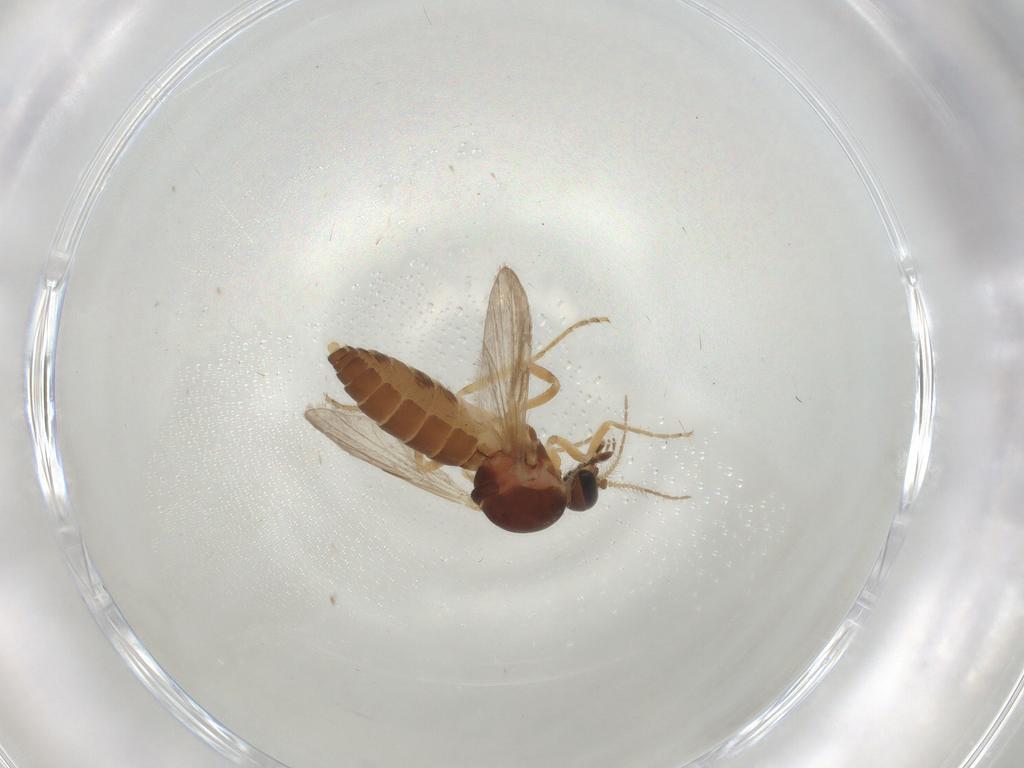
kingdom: Animalia
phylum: Arthropoda
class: Insecta
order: Diptera
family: Ceratopogonidae
